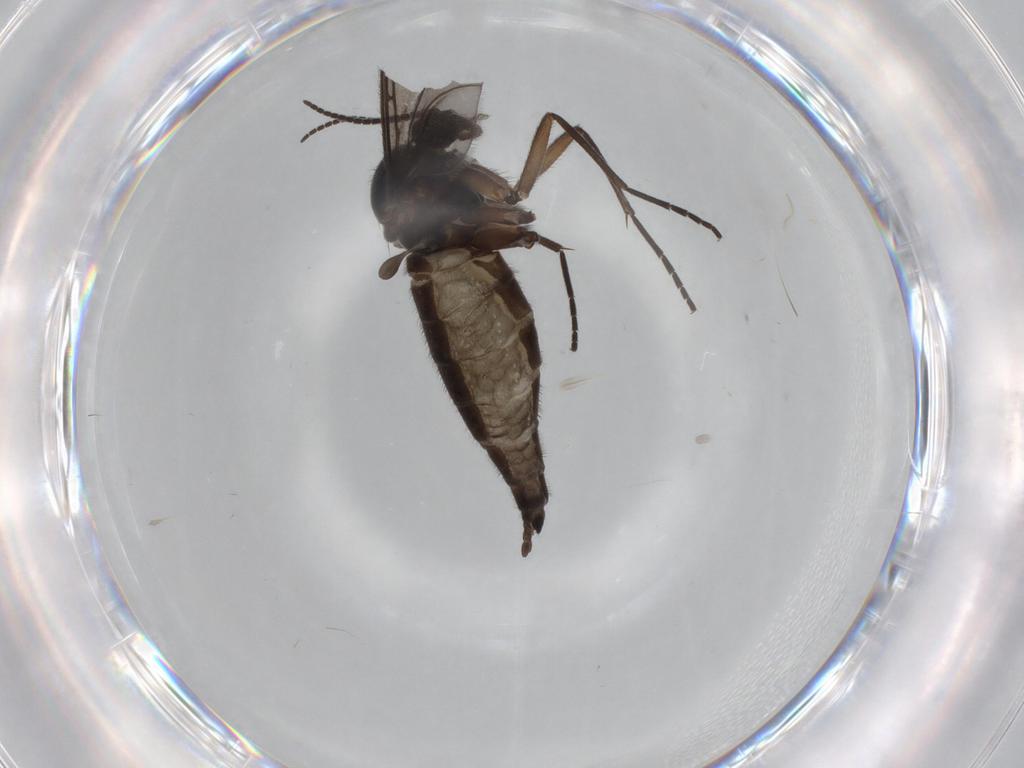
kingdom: Animalia
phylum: Arthropoda
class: Insecta
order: Diptera
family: Sciaridae
